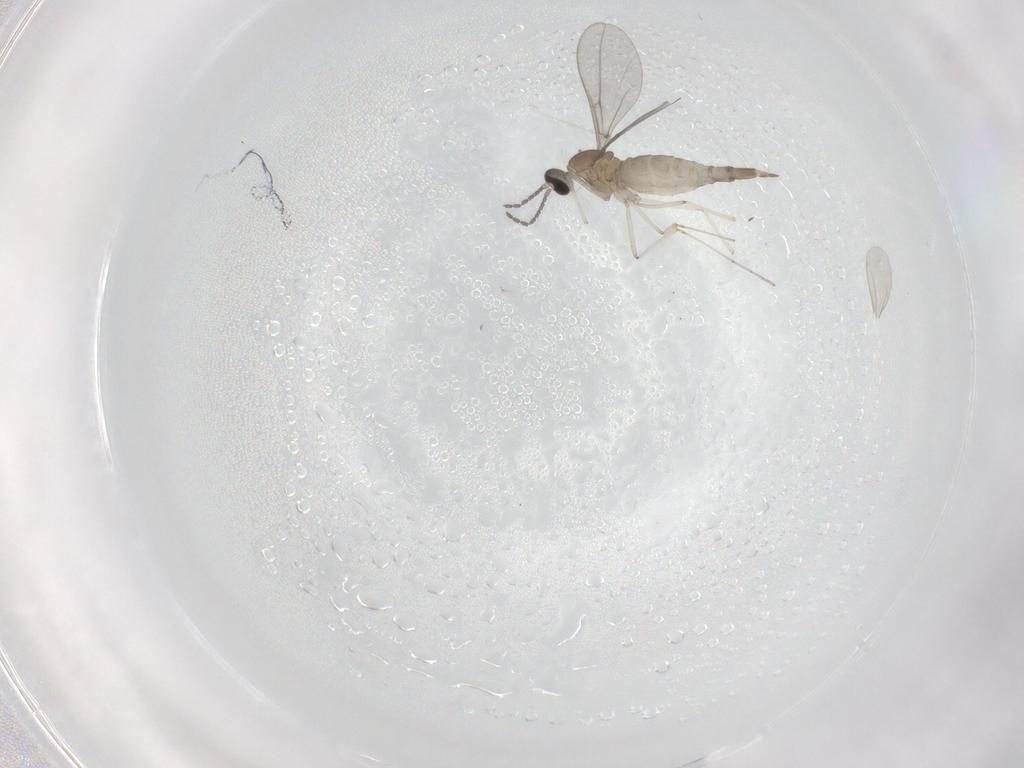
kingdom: Animalia
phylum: Arthropoda
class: Insecta
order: Diptera
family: Cecidomyiidae
